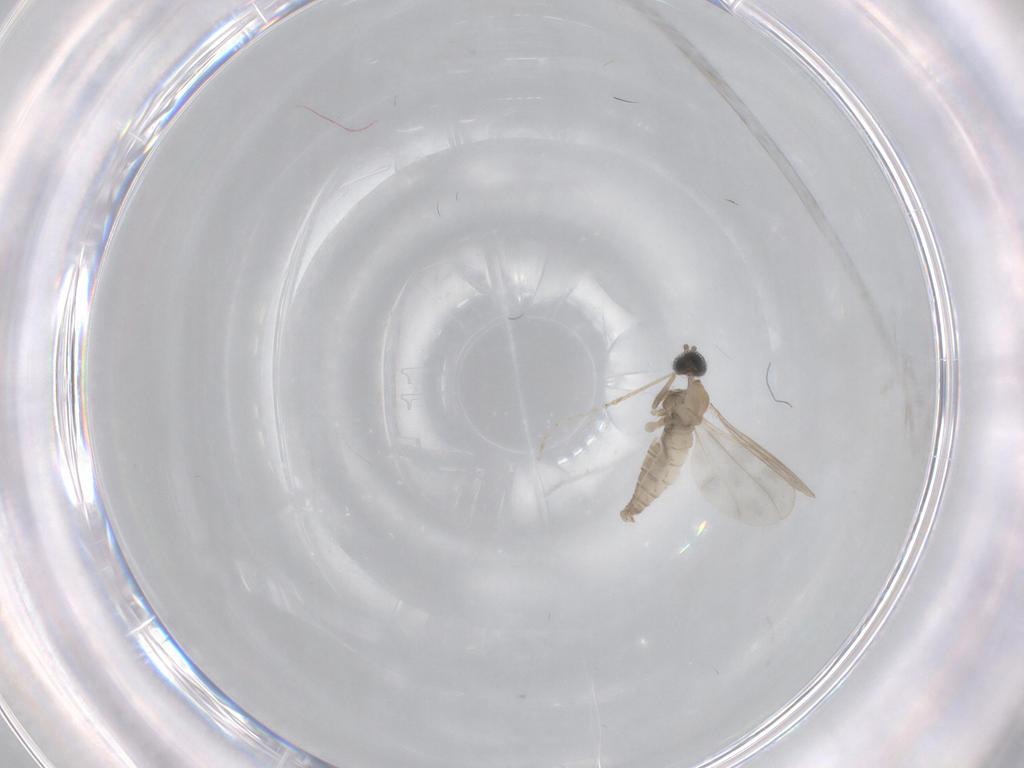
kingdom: Animalia
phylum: Arthropoda
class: Insecta
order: Diptera
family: Cecidomyiidae
